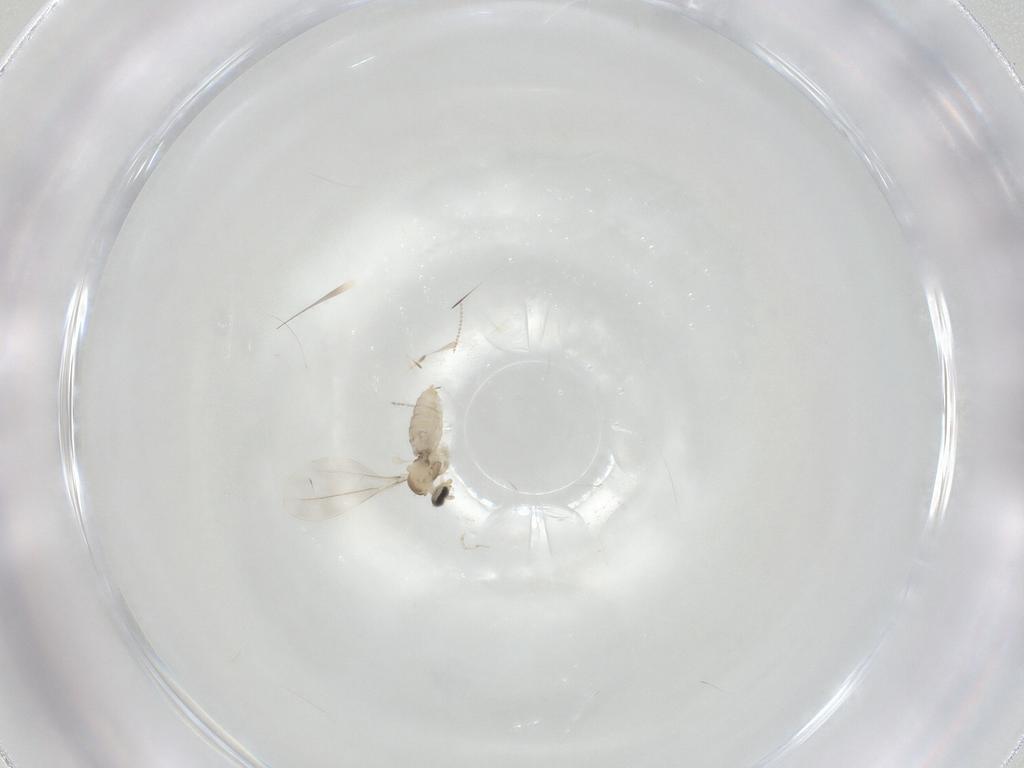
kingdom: Animalia
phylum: Arthropoda
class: Insecta
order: Diptera
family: Cecidomyiidae
